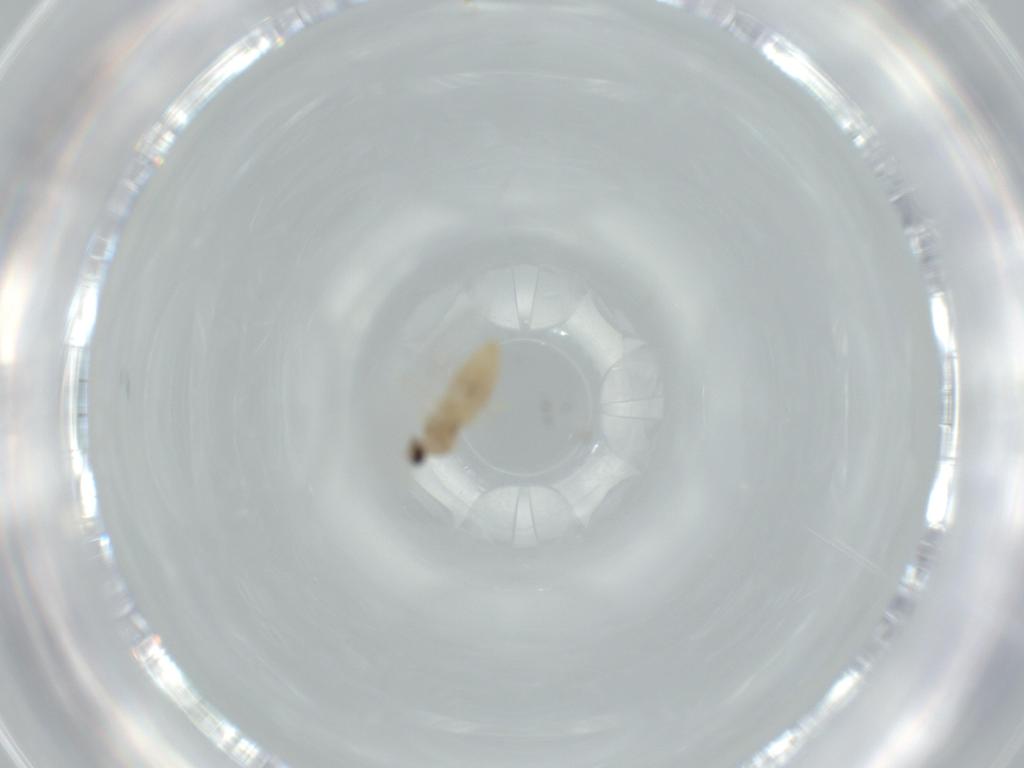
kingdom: Animalia
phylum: Arthropoda
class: Insecta
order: Diptera
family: Cecidomyiidae
